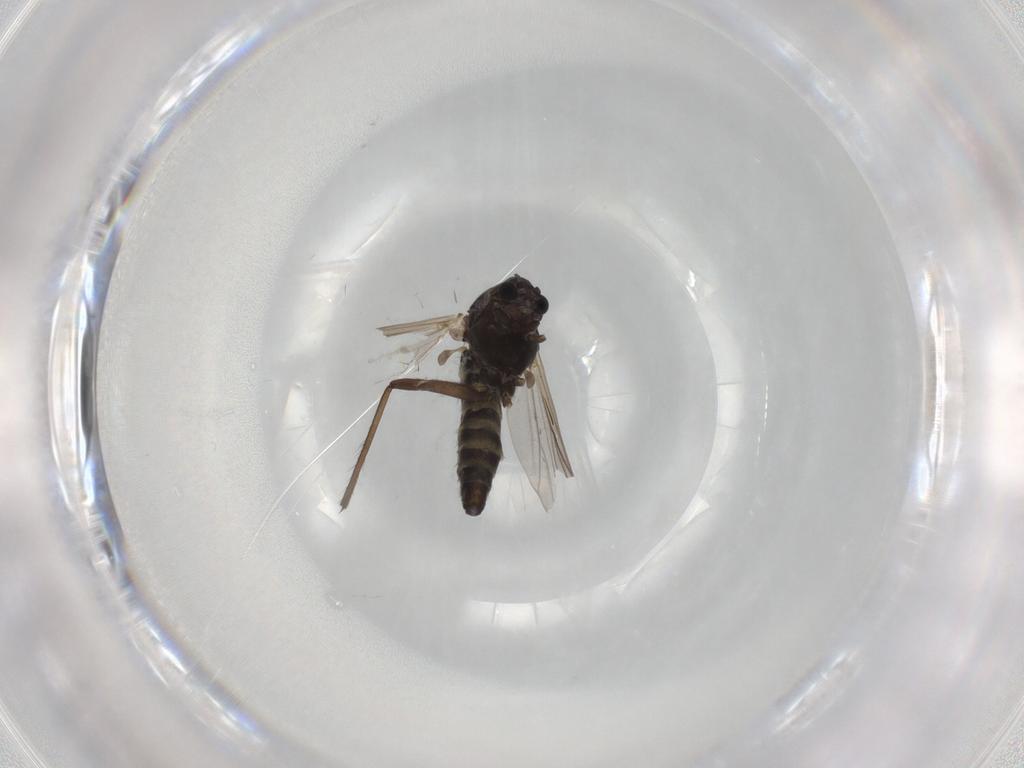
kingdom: Animalia
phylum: Arthropoda
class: Insecta
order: Diptera
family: Chironomidae
